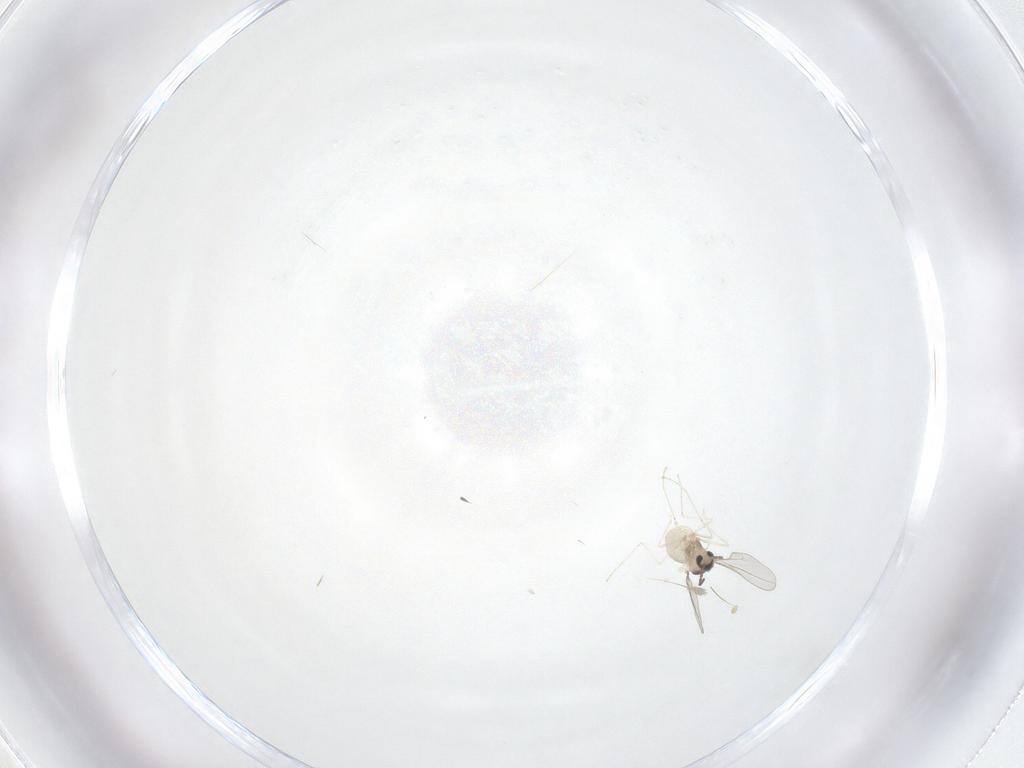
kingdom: Animalia
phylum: Arthropoda
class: Insecta
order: Diptera
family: Cecidomyiidae
